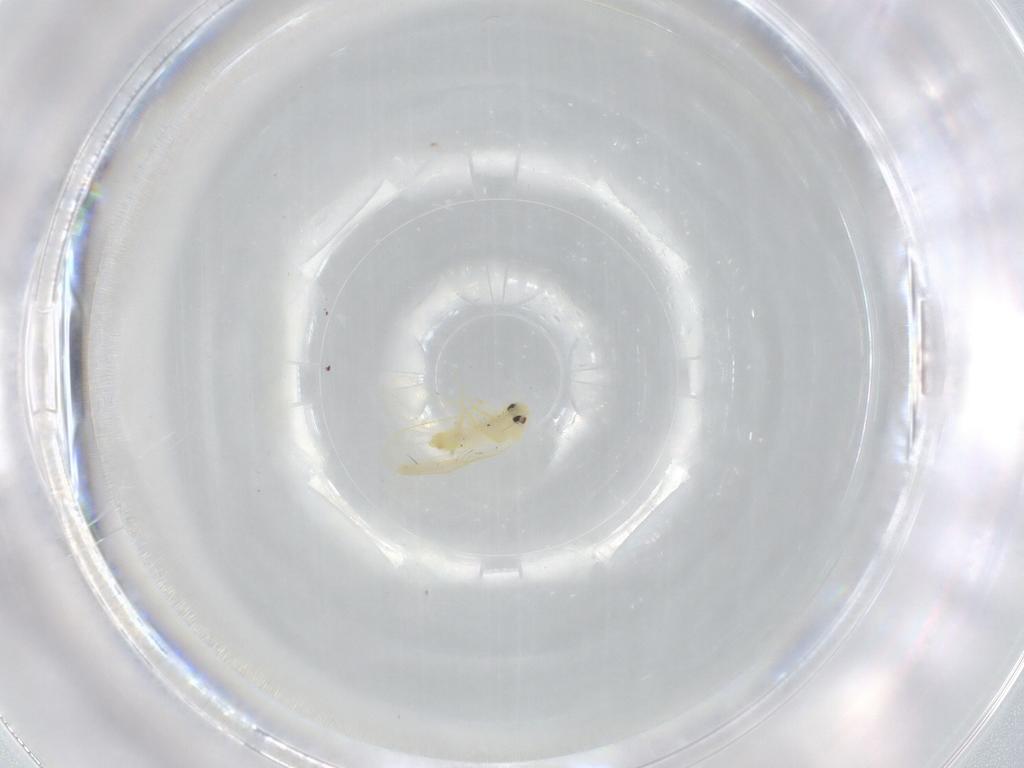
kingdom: Animalia
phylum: Arthropoda
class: Insecta
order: Hemiptera
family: Aleyrodidae
